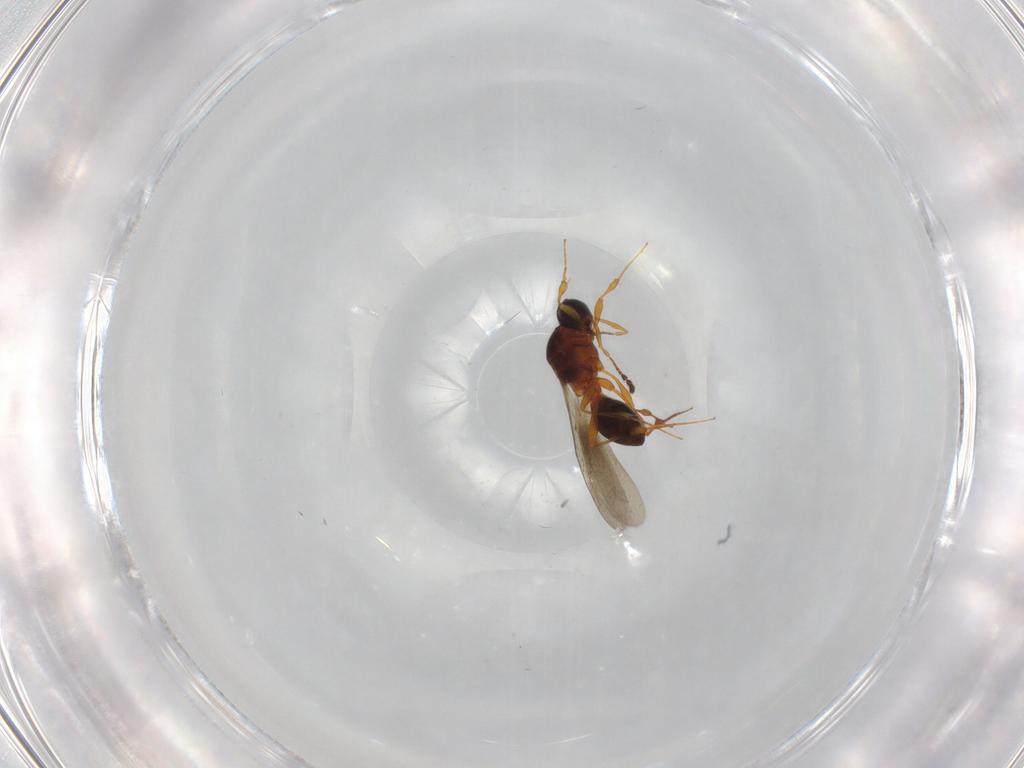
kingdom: Animalia
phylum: Arthropoda
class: Insecta
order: Hymenoptera
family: Platygastridae
